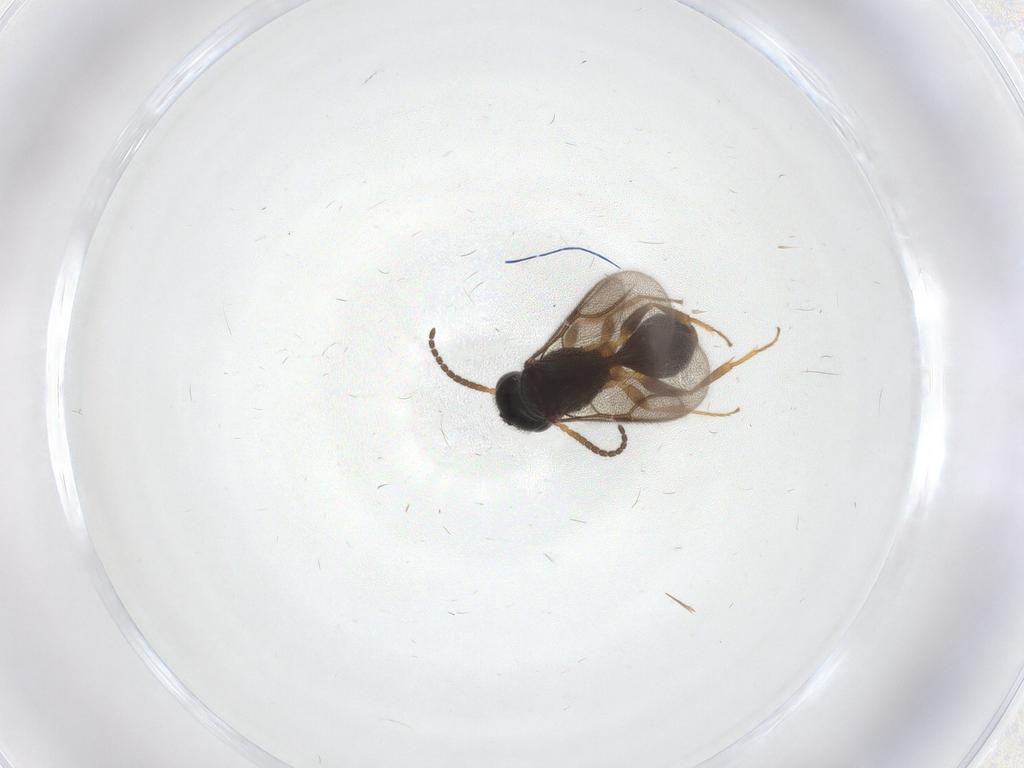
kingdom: Animalia
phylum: Arthropoda
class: Insecta
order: Hymenoptera
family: Bethylidae
